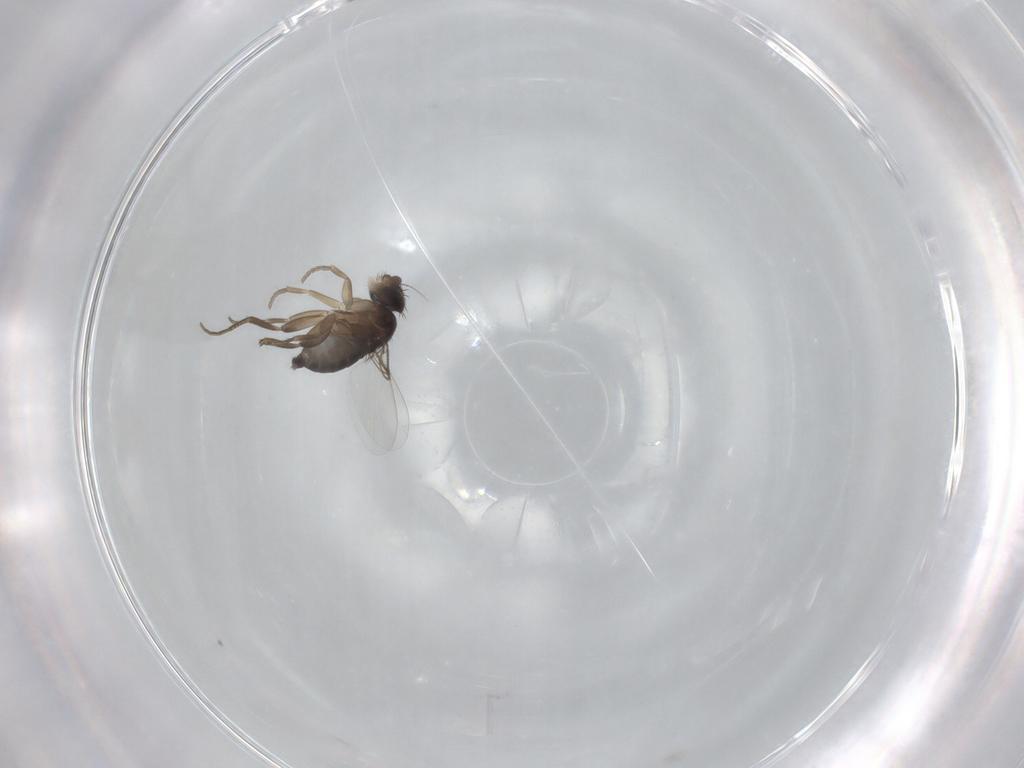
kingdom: Animalia
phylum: Arthropoda
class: Insecta
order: Diptera
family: Phoridae
